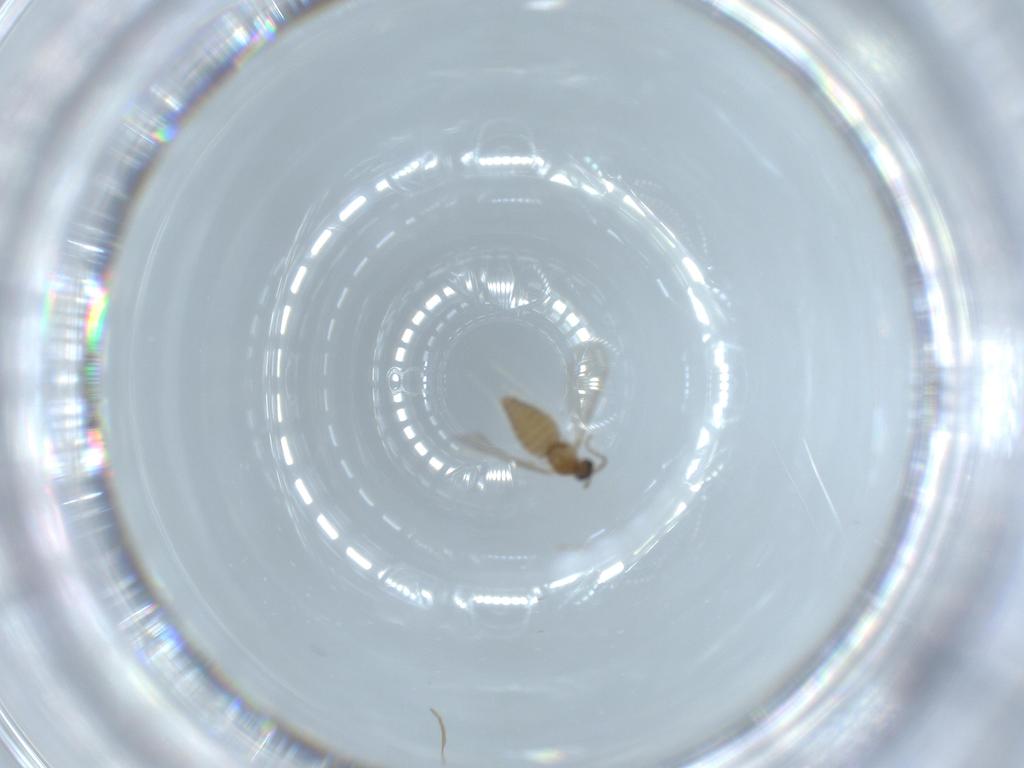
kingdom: Animalia
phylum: Arthropoda
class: Insecta
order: Diptera
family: Chloropidae
